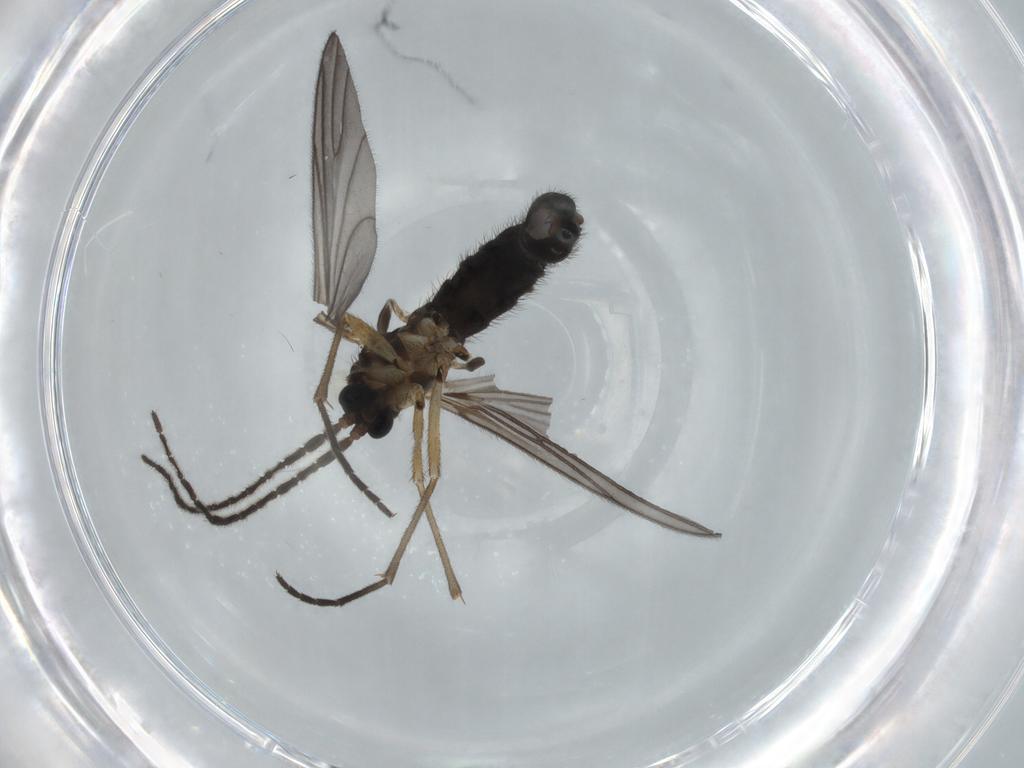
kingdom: Animalia
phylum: Arthropoda
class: Insecta
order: Diptera
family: Sciaridae
